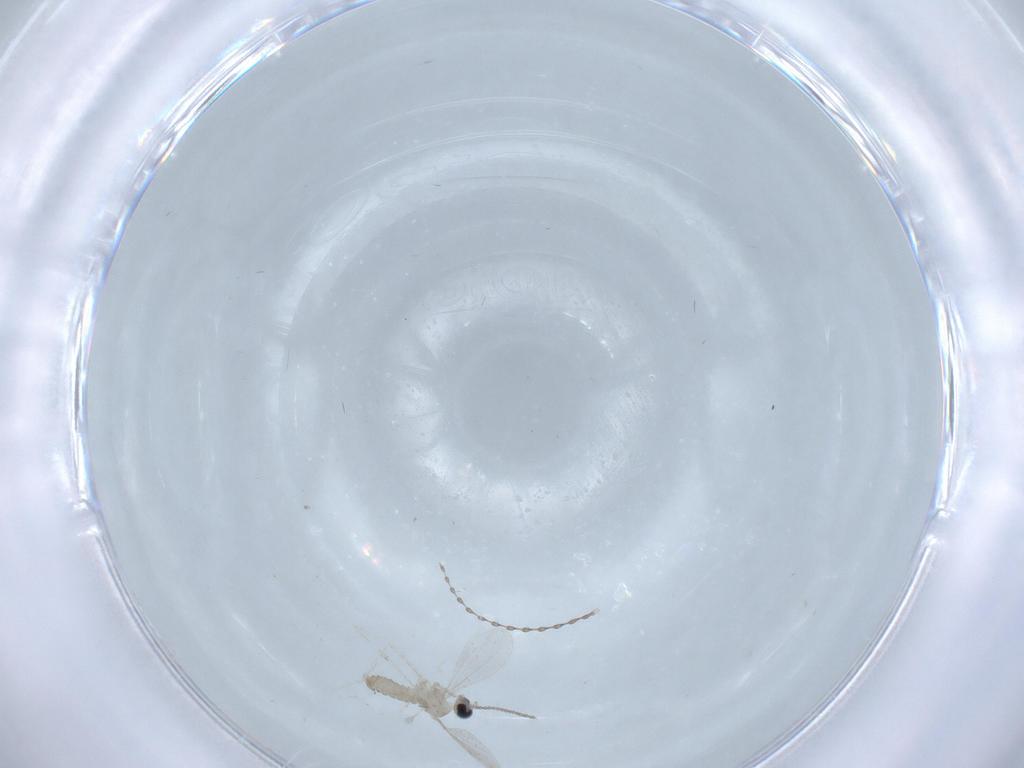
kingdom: Animalia
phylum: Arthropoda
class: Insecta
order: Diptera
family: Cecidomyiidae
